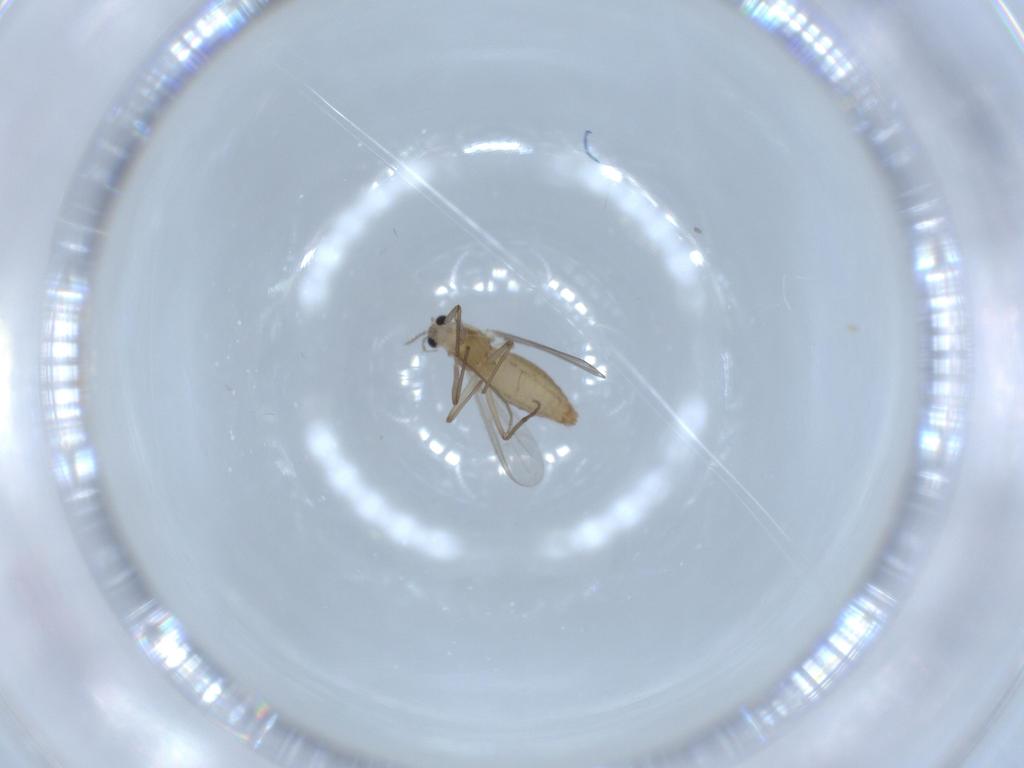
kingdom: Animalia
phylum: Arthropoda
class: Insecta
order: Diptera
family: Chironomidae
